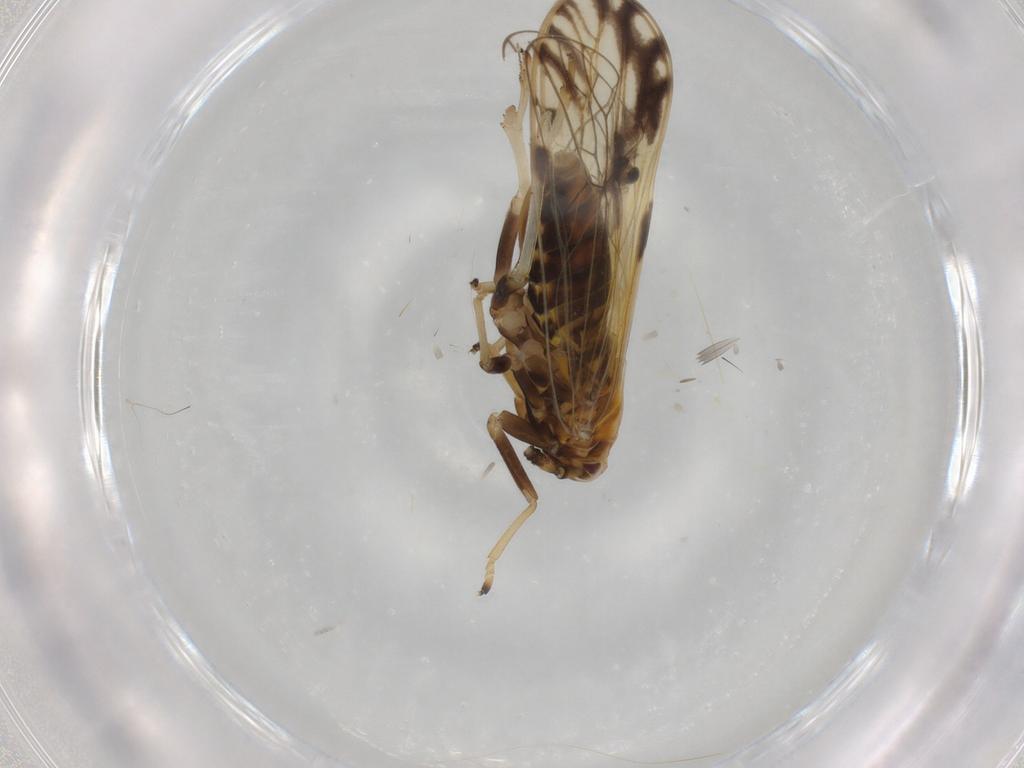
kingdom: Animalia
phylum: Arthropoda
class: Insecta
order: Hemiptera
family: Delphacidae
